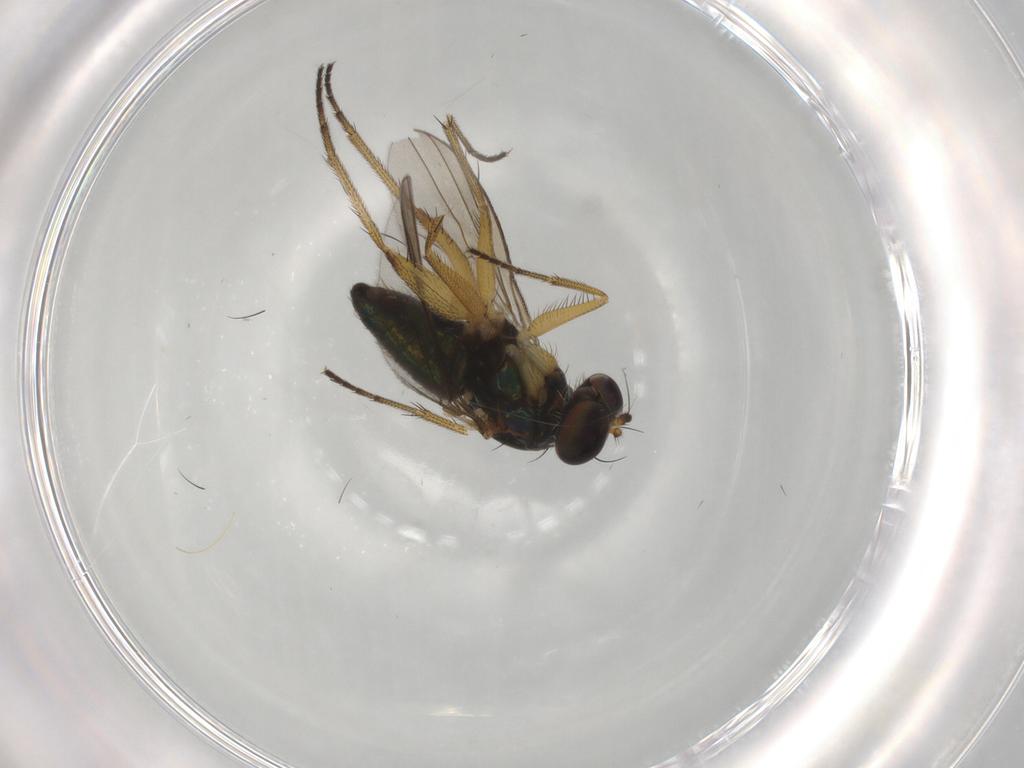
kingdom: Animalia
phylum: Arthropoda
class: Insecta
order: Diptera
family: Dolichopodidae
